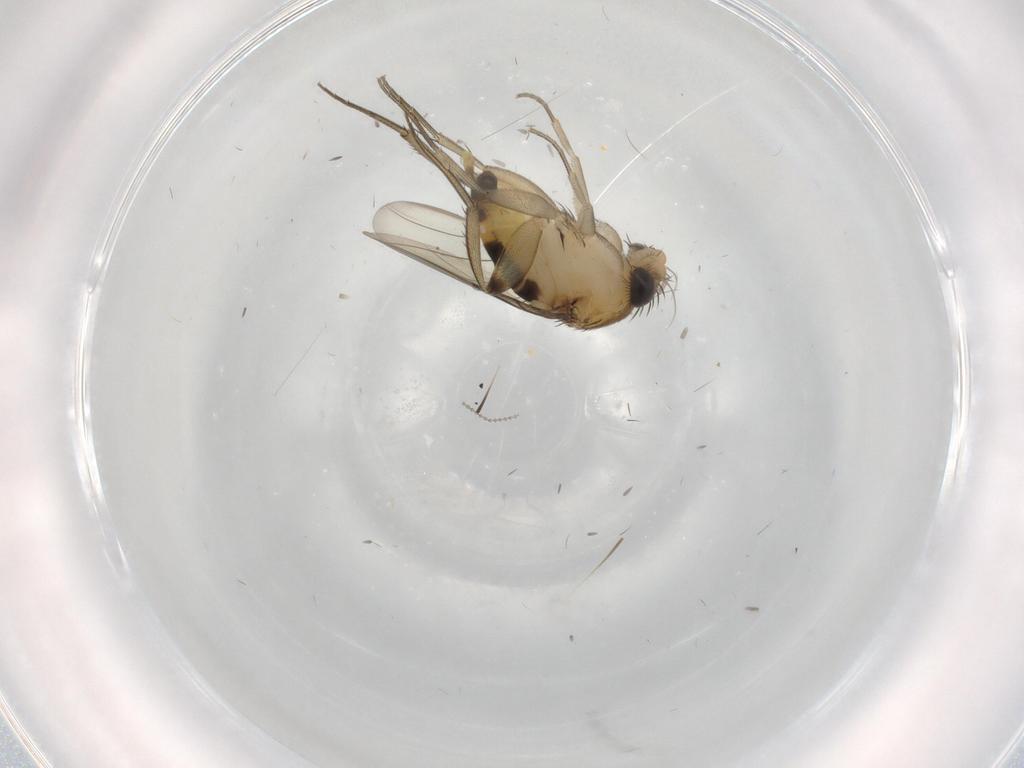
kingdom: Animalia
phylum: Arthropoda
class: Insecta
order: Diptera
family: Phoridae
